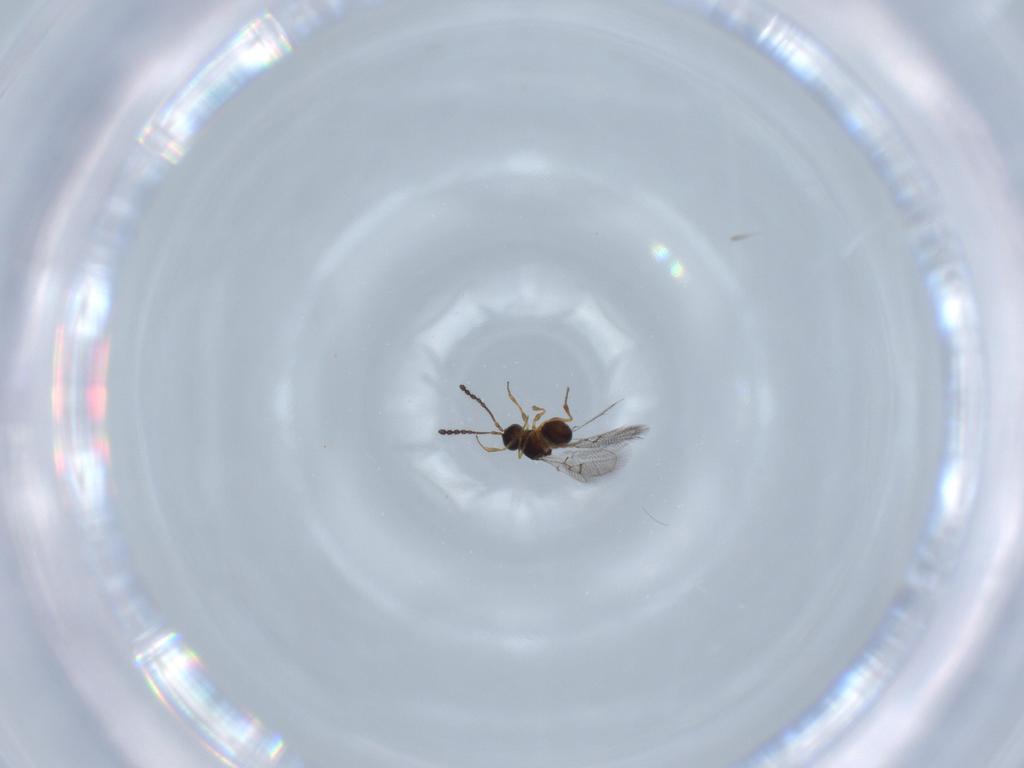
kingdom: Animalia
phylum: Arthropoda
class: Insecta
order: Hymenoptera
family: Figitidae
